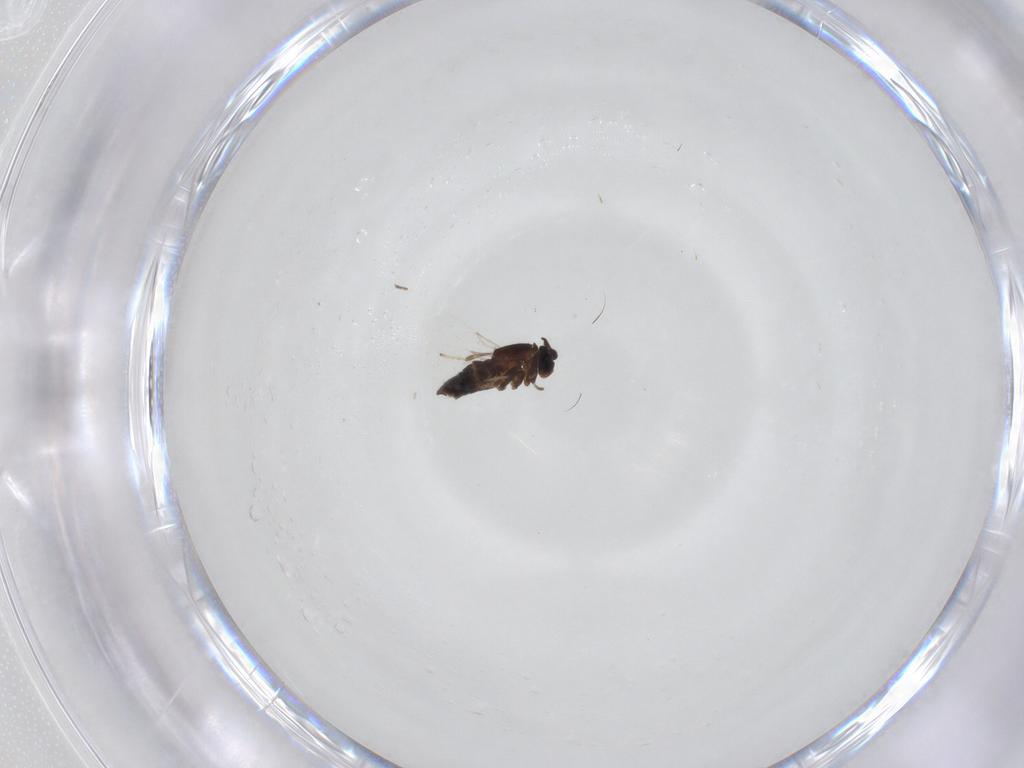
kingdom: Animalia
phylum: Arthropoda
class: Insecta
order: Diptera
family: Scatopsidae
